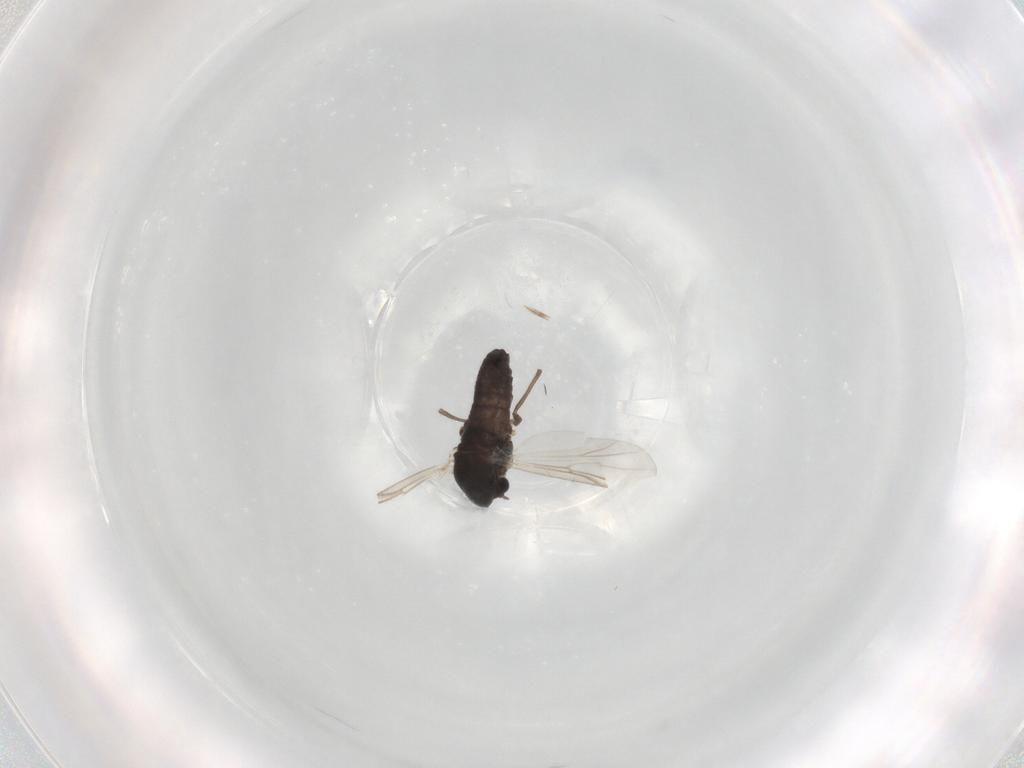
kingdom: Animalia
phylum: Arthropoda
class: Insecta
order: Diptera
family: Chironomidae
